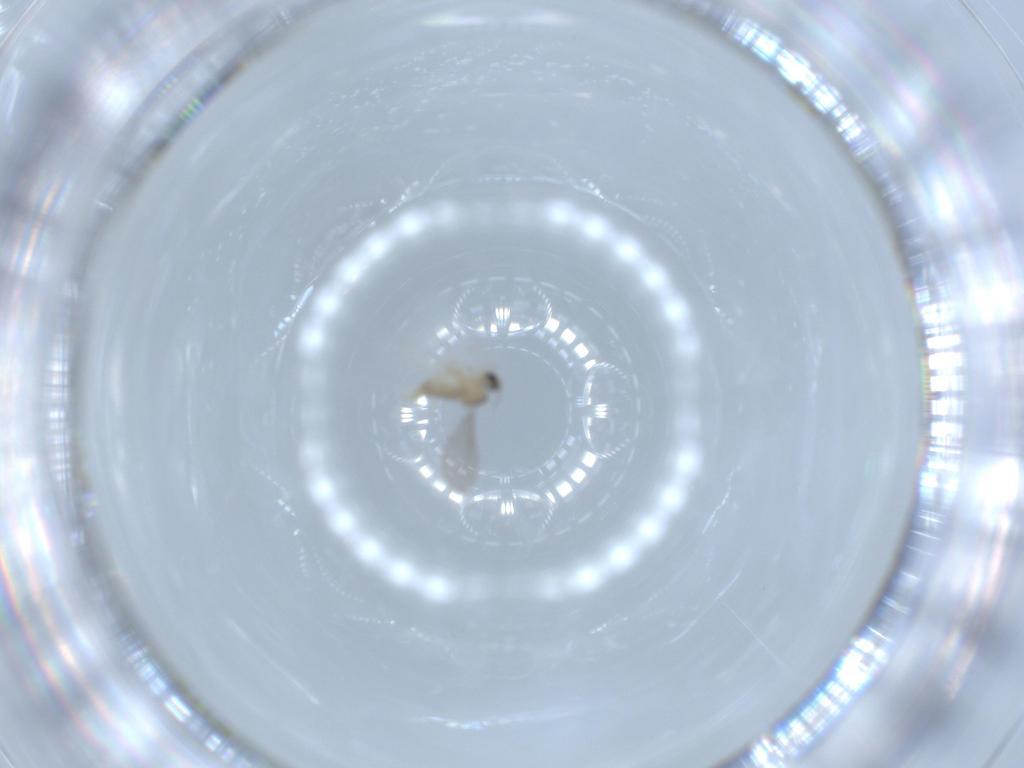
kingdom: Animalia
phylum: Arthropoda
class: Insecta
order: Diptera
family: Cecidomyiidae
